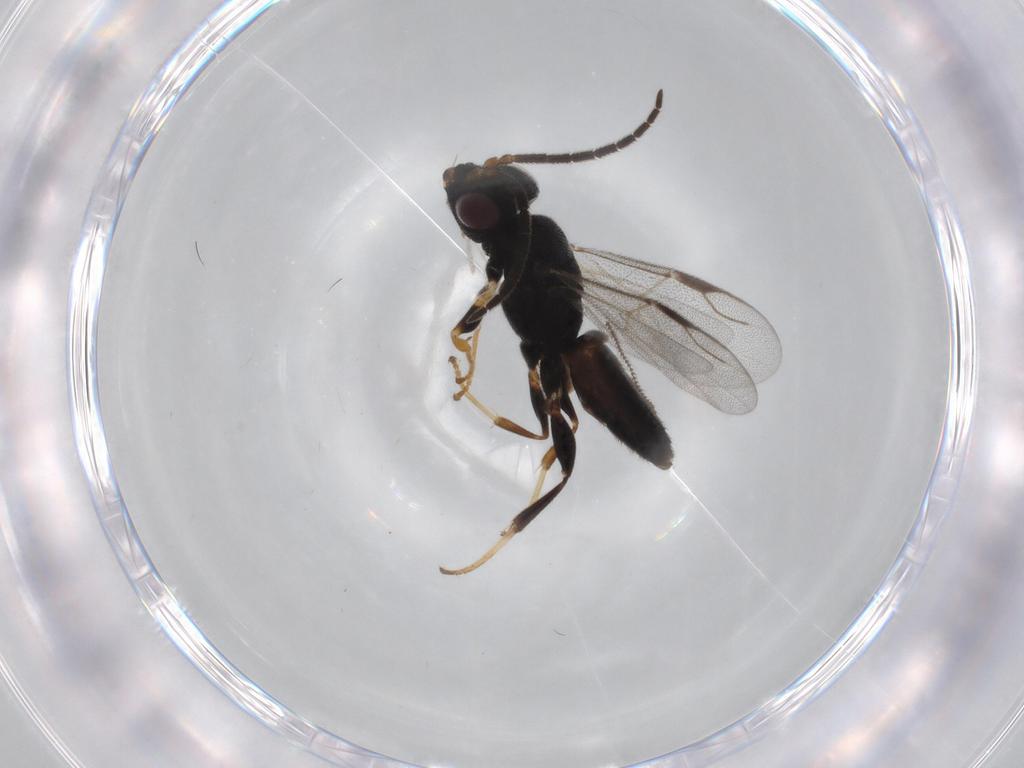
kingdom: Animalia
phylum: Arthropoda
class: Insecta
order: Hymenoptera
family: Dryinidae
